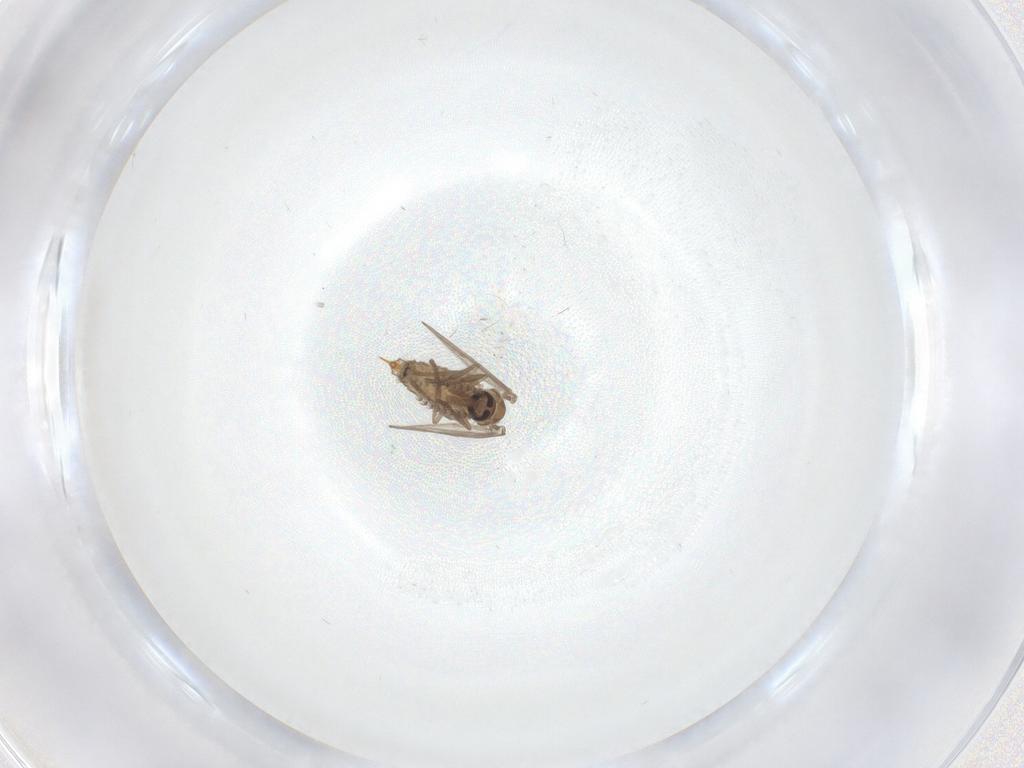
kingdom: Animalia
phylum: Arthropoda
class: Insecta
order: Diptera
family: Psychodidae
